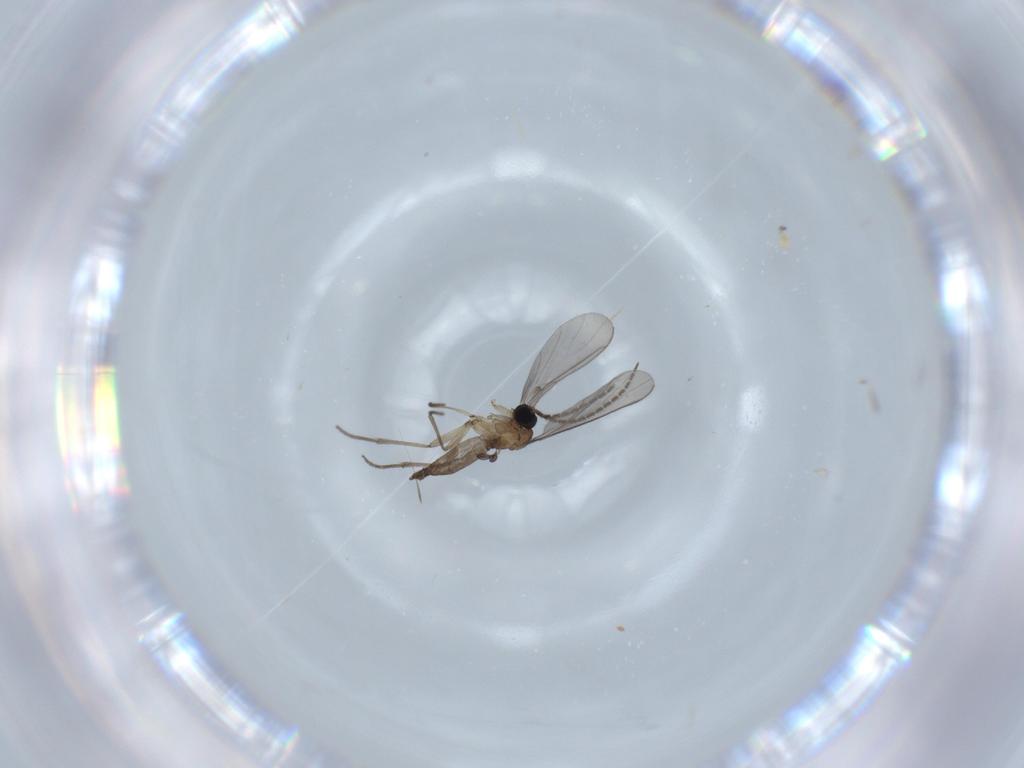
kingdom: Animalia
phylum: Arthropoda
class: Insecta
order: Diptera
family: Sciaridae
